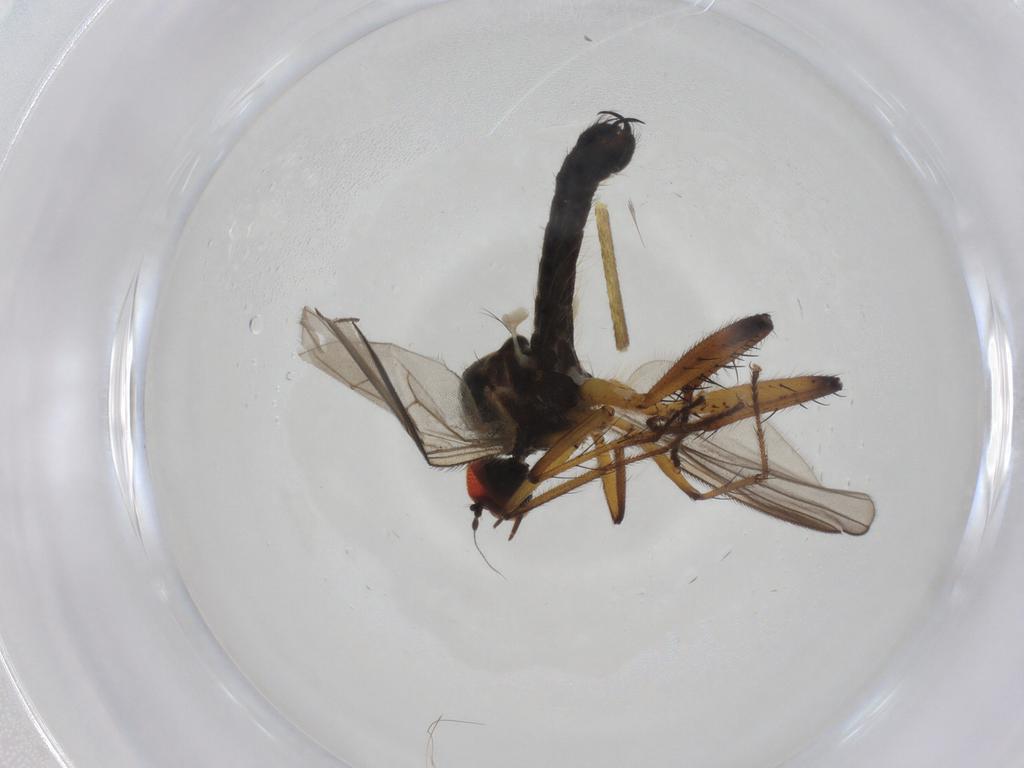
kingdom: Animalia
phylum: Arthropoda
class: Insecta
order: Diptera
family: Hybotidae
